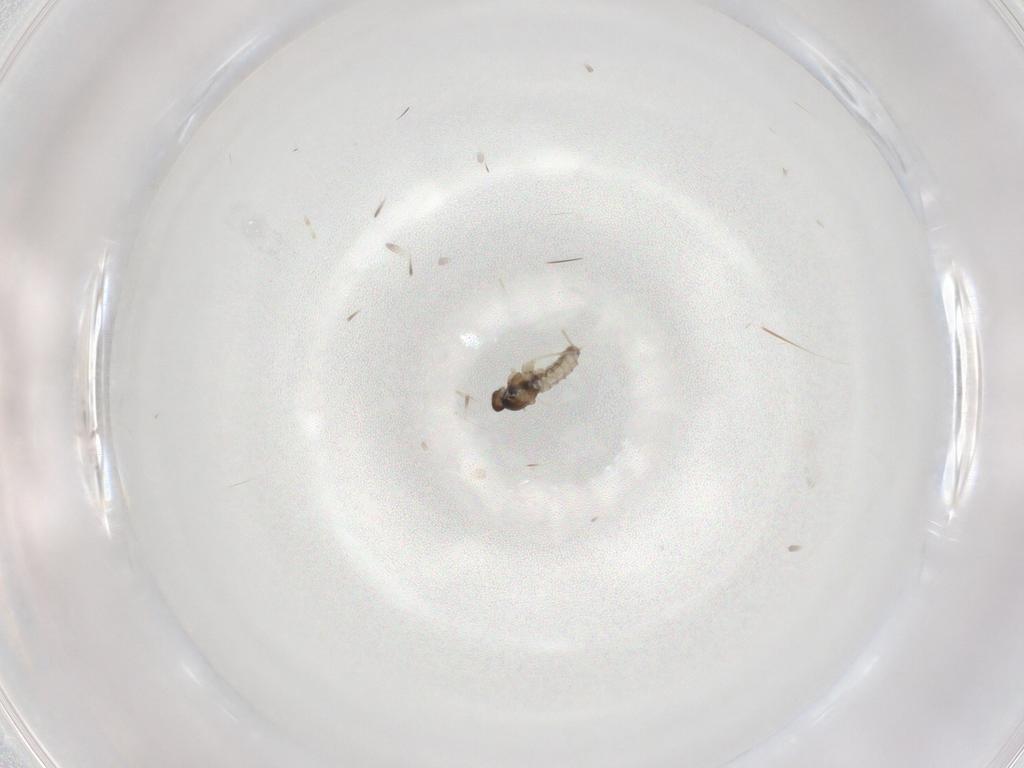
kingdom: Animalia
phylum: Arthropoda
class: Insecta
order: Diptera
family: Cecidomyiidae
